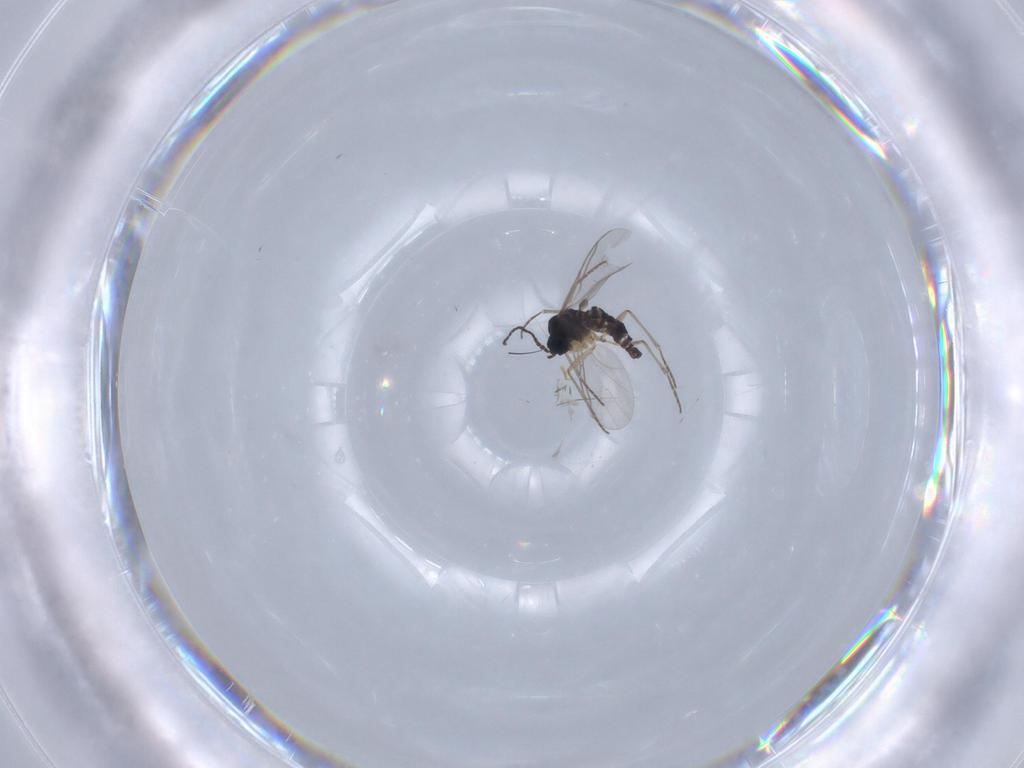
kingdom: Animalia
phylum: Arthropoda
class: Insecta
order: Diptera
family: Sciaridae
